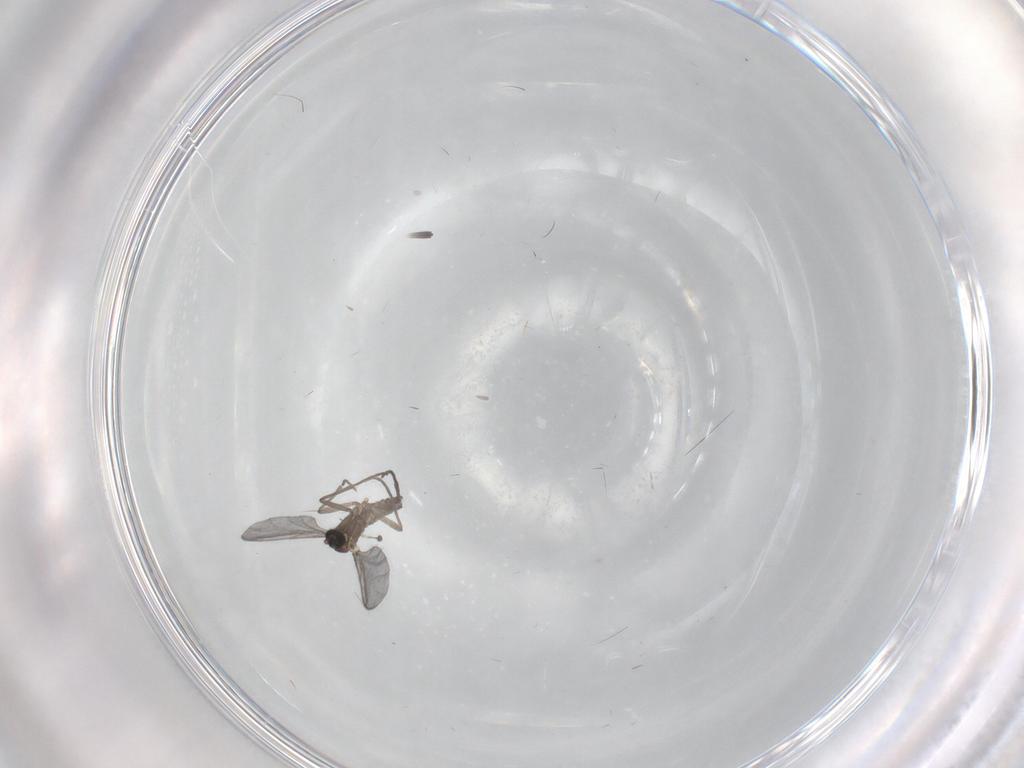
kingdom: Animalia
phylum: Arthropoda
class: Insecta
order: Diptera
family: Sciaridae
